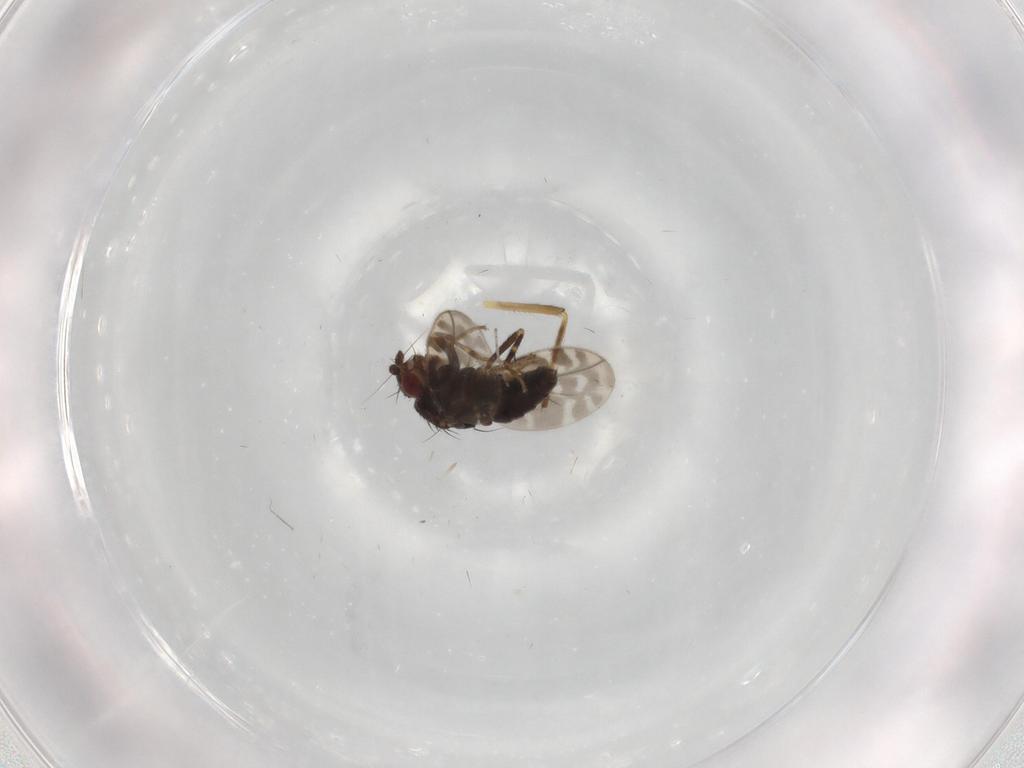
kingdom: Animalia
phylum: Arthropoda
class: Insecta
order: Diptera
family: Sphaeroceridae
